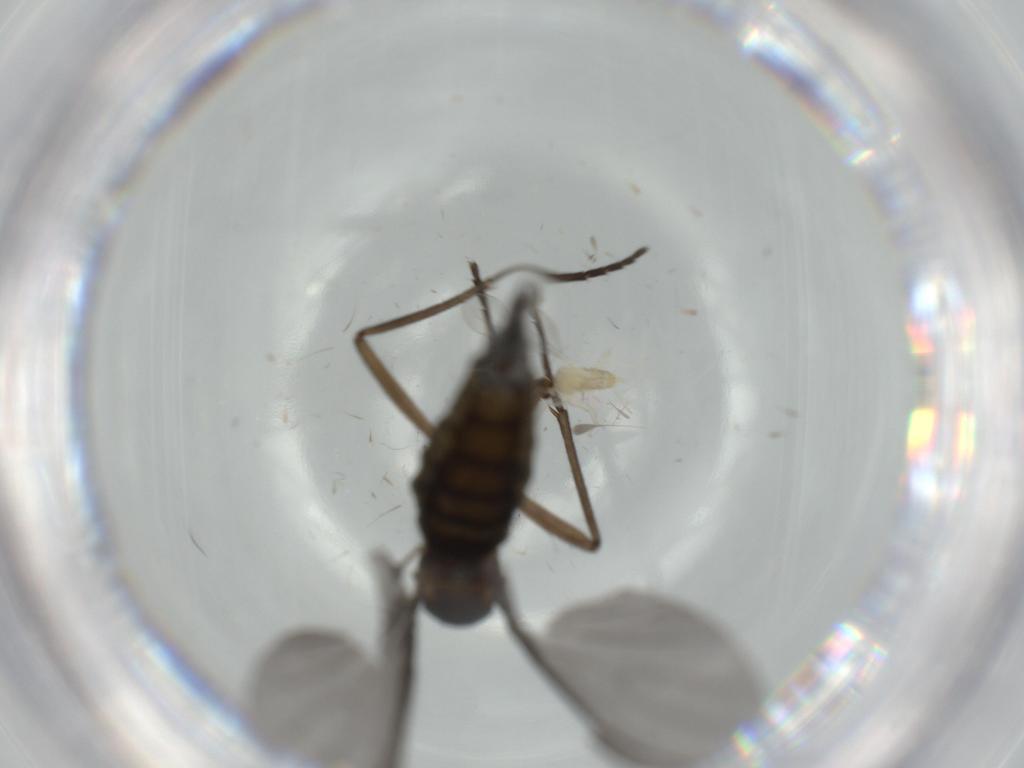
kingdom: Animalia
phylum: Arthropoda
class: Insecta
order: Diptera
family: Sciaridae
